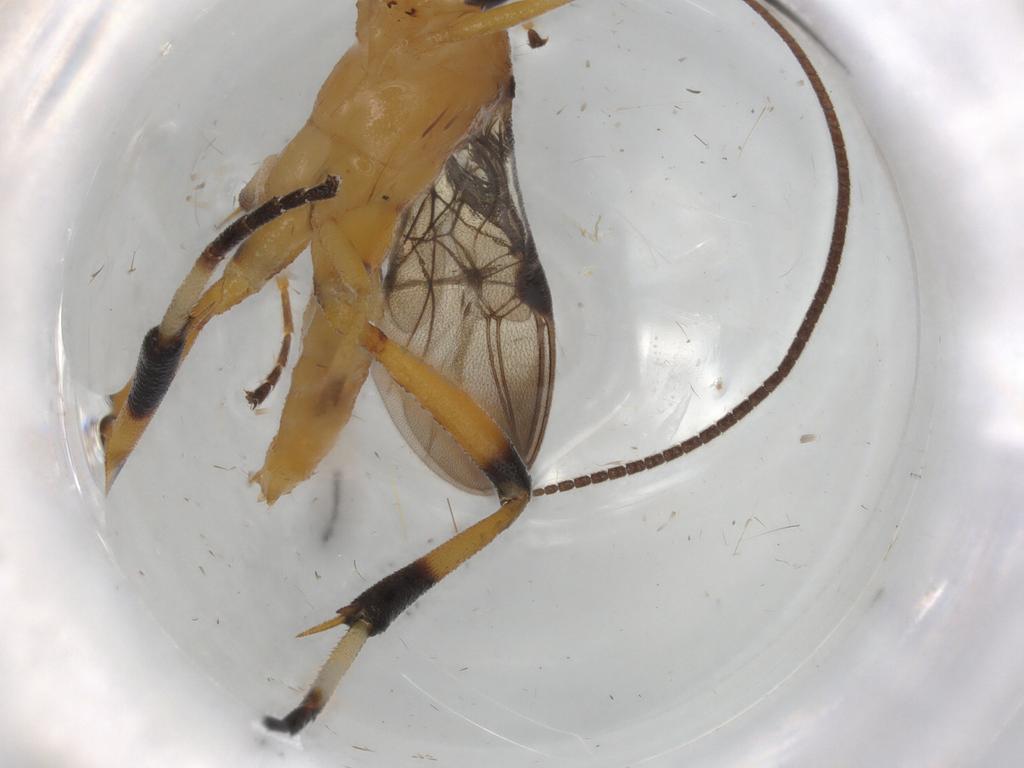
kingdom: Animalia
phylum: Arthropoda
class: Insecta
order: Hymenoptera
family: Braconidae
